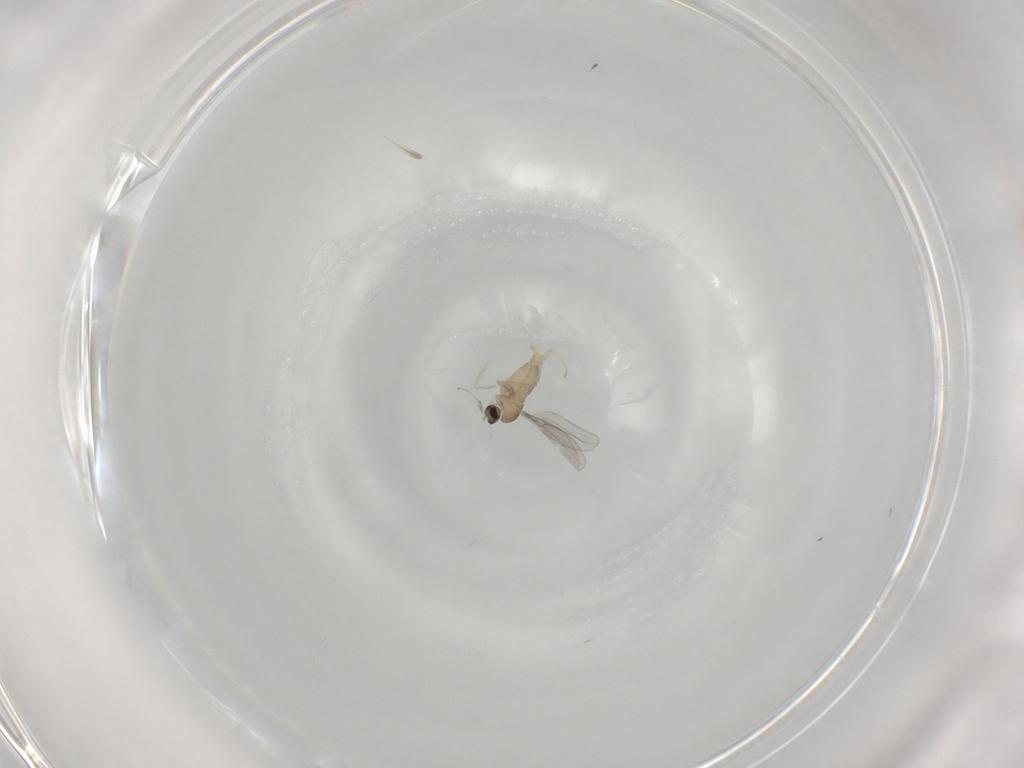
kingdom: Animalia
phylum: Arthropoda
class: Insecta
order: Diptera
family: Cecidomyiidae
